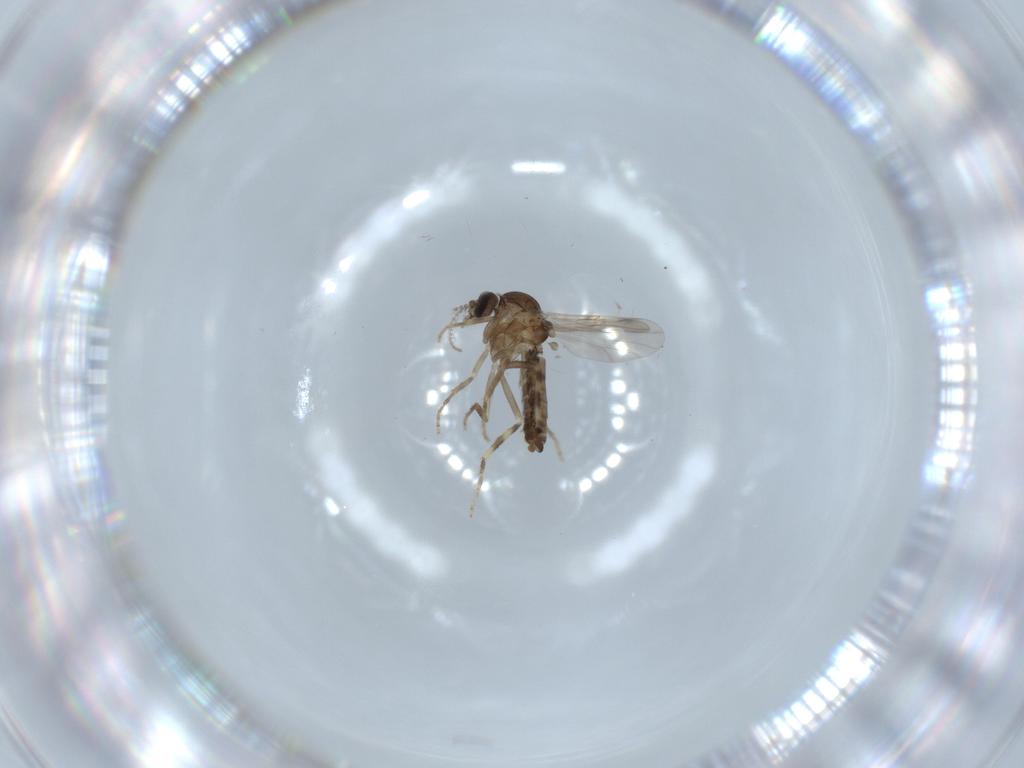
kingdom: Animalia
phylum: Arthropoda
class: Insecta
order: Diptera
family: Ceratopogonidae
